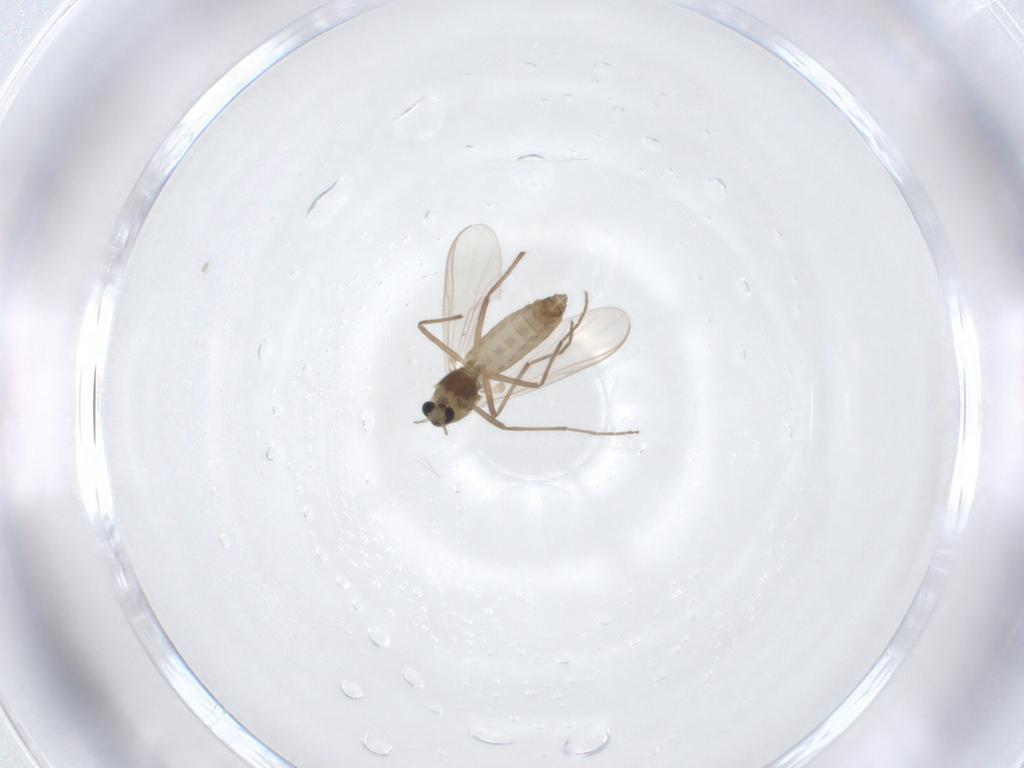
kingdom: Animalia
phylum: Arthropoda
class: Insecta
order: Diptera
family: Chironomidae
